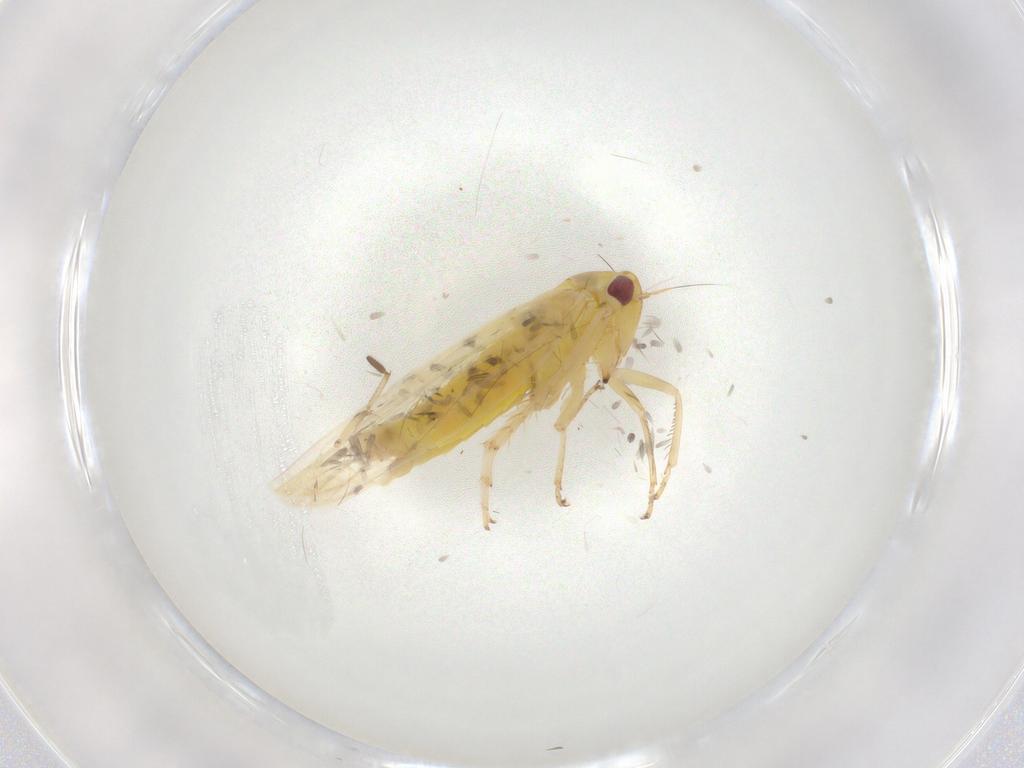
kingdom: Animalia
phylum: Arthropoda
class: Insecta
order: Hemiptera
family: Cicadellidae
